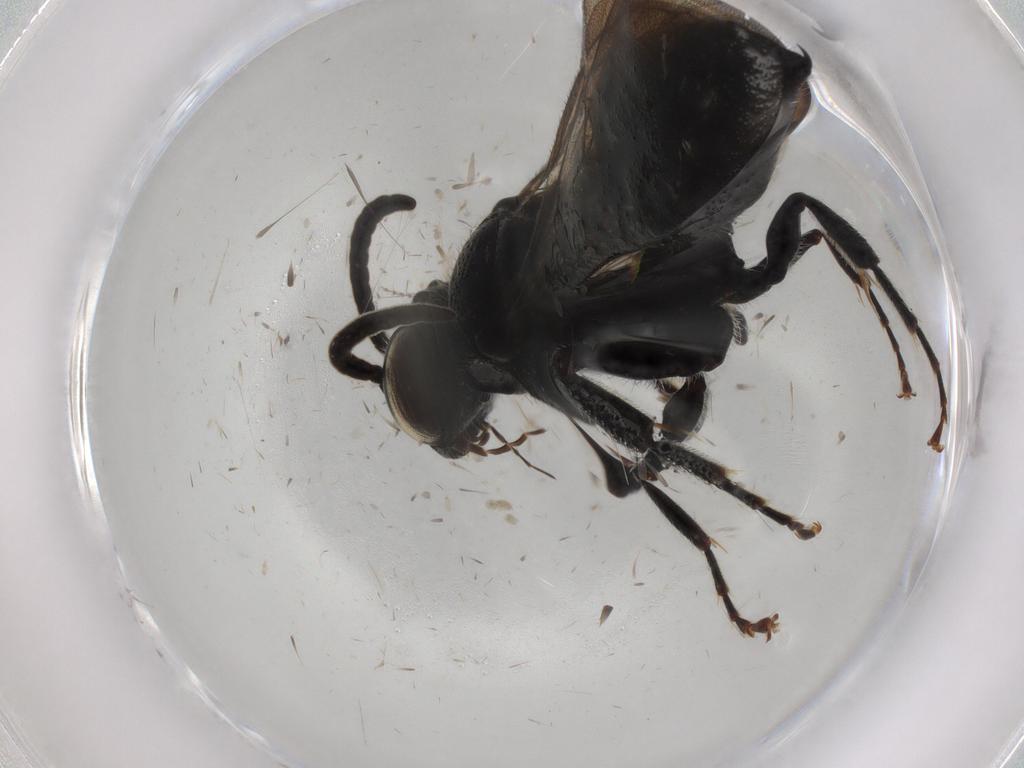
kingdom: Animalia
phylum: Arthropoda
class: Insecta
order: Hymenoptera
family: Tiphiidae
